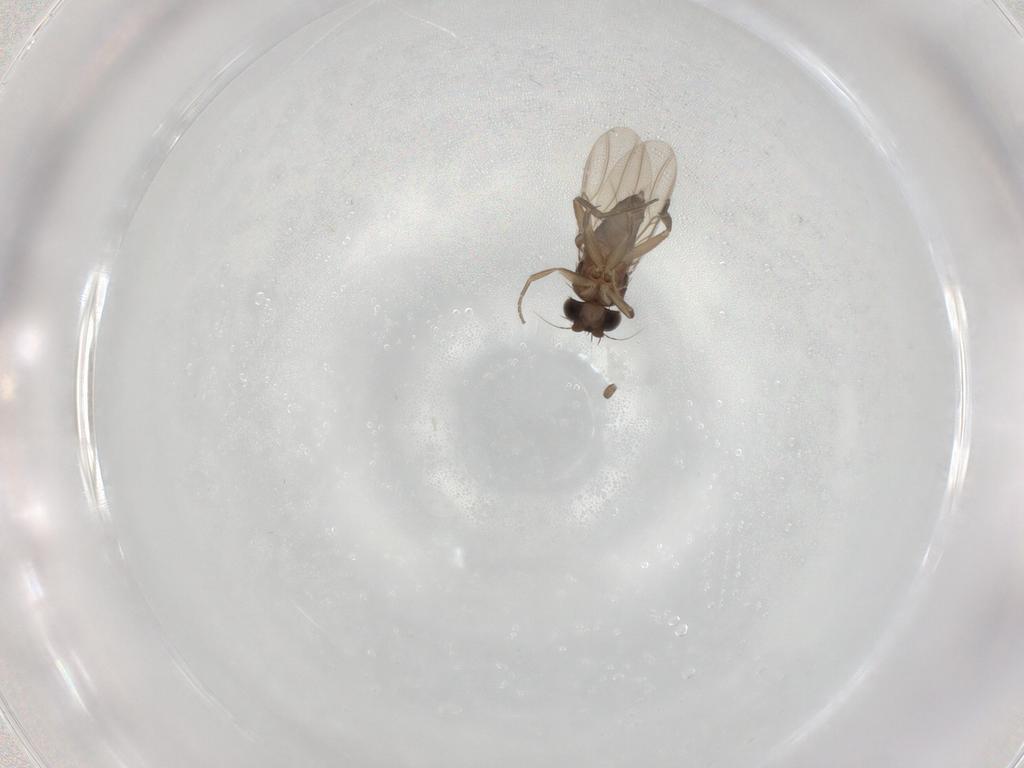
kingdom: Animalia
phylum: Arthropoda
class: Insecta
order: Diptera
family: Phoridae
